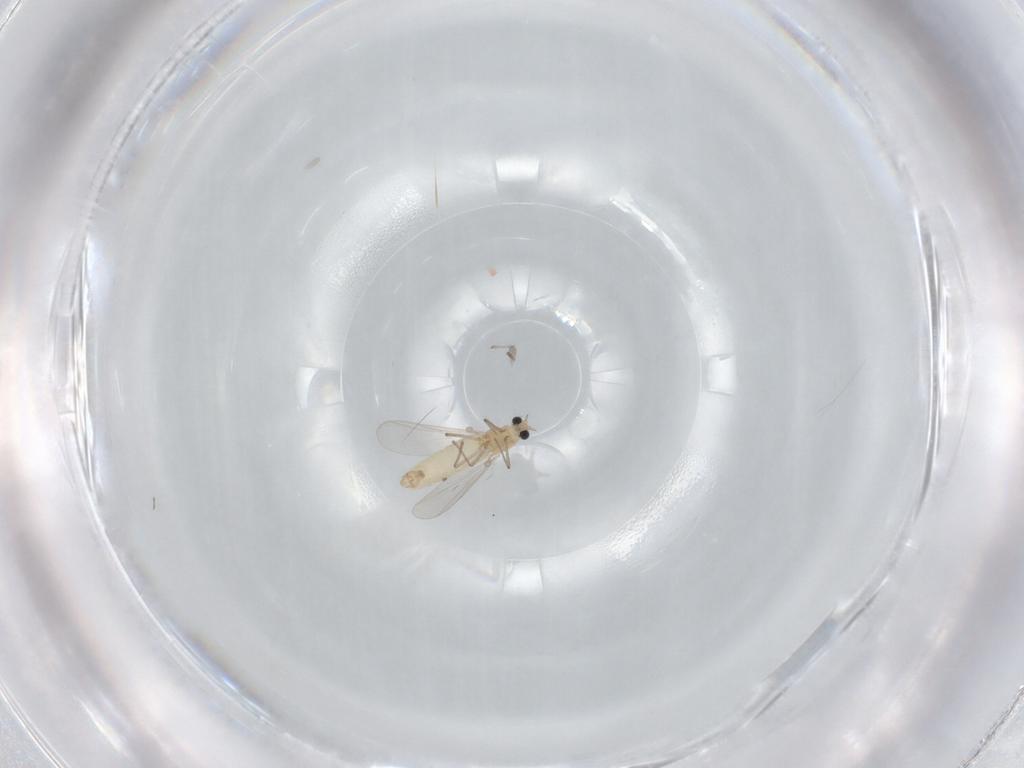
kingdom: Animalia
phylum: Arthropoda
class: Insecta
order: Diptera
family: Chironomidae
